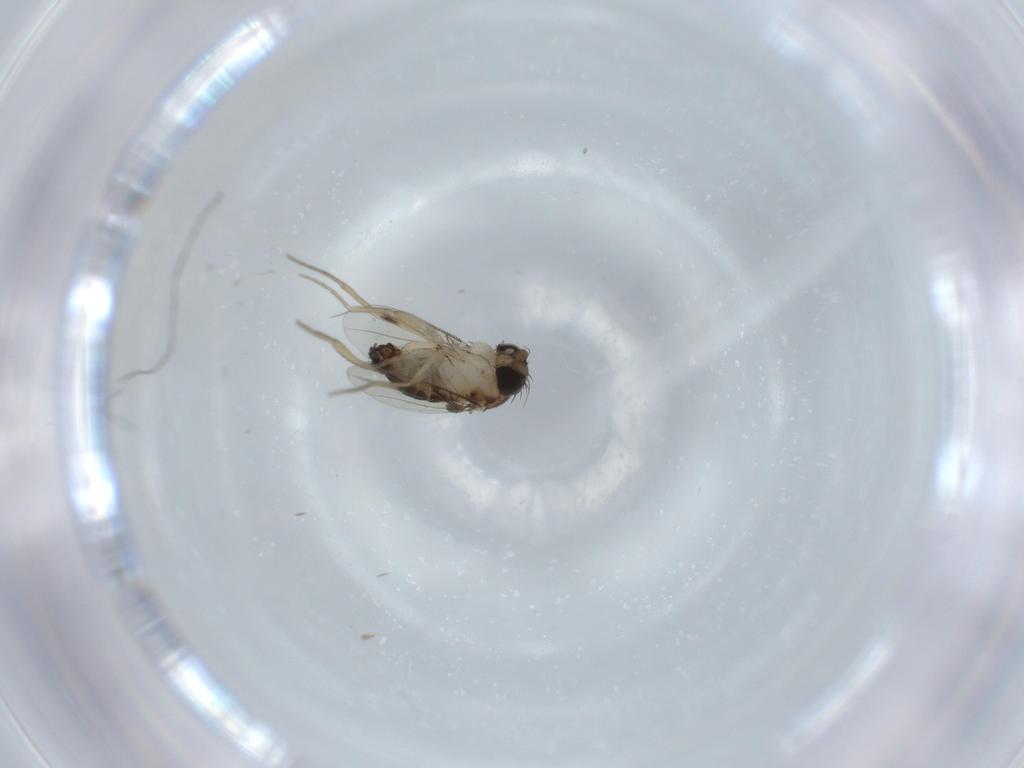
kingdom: Animalia
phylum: Arthropoda
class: Insecta
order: Diptera
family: Phoridae
